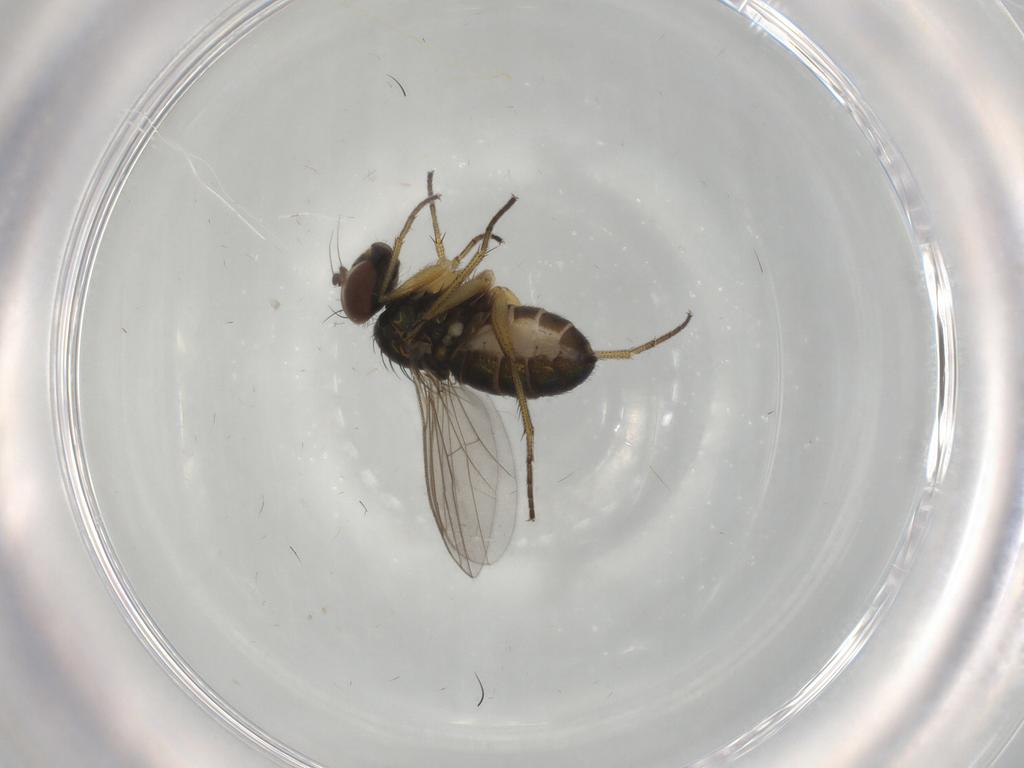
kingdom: Animalia
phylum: Arthropoda
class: Insecta
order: Diptera
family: Dolichopodidae
